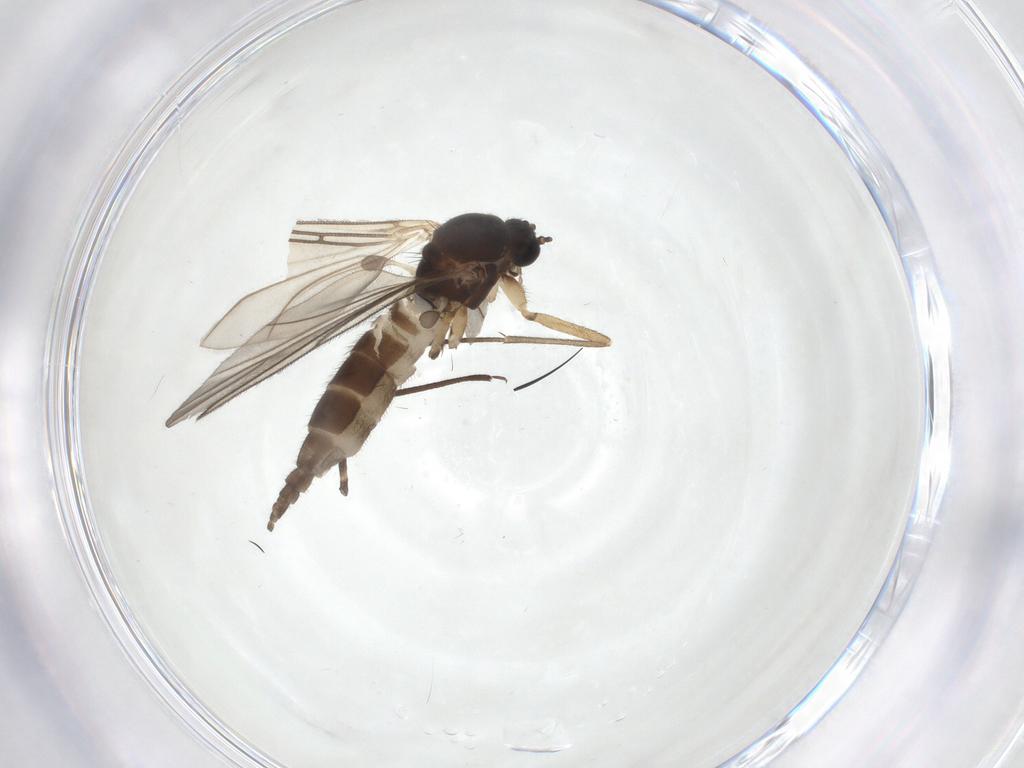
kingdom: Animalia
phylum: Arthropoda
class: Insecta
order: Diptera
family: Sciaridae
